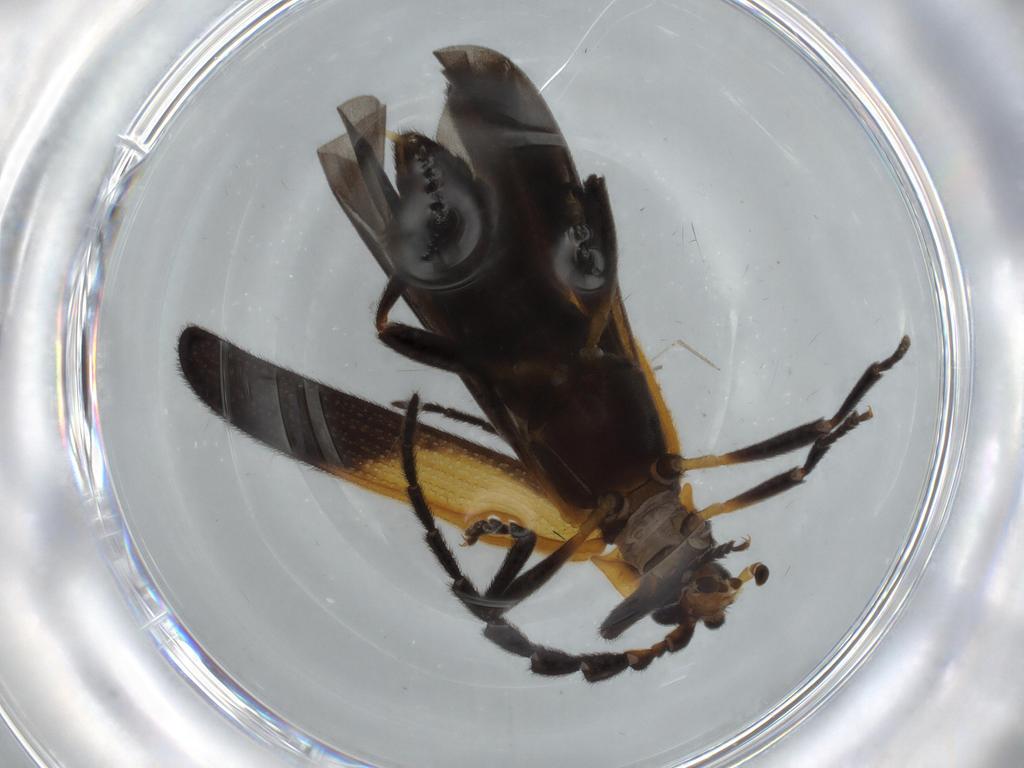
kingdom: Animalia
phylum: Arthropoda
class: Insecta
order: Coleoptera
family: Lycidae
